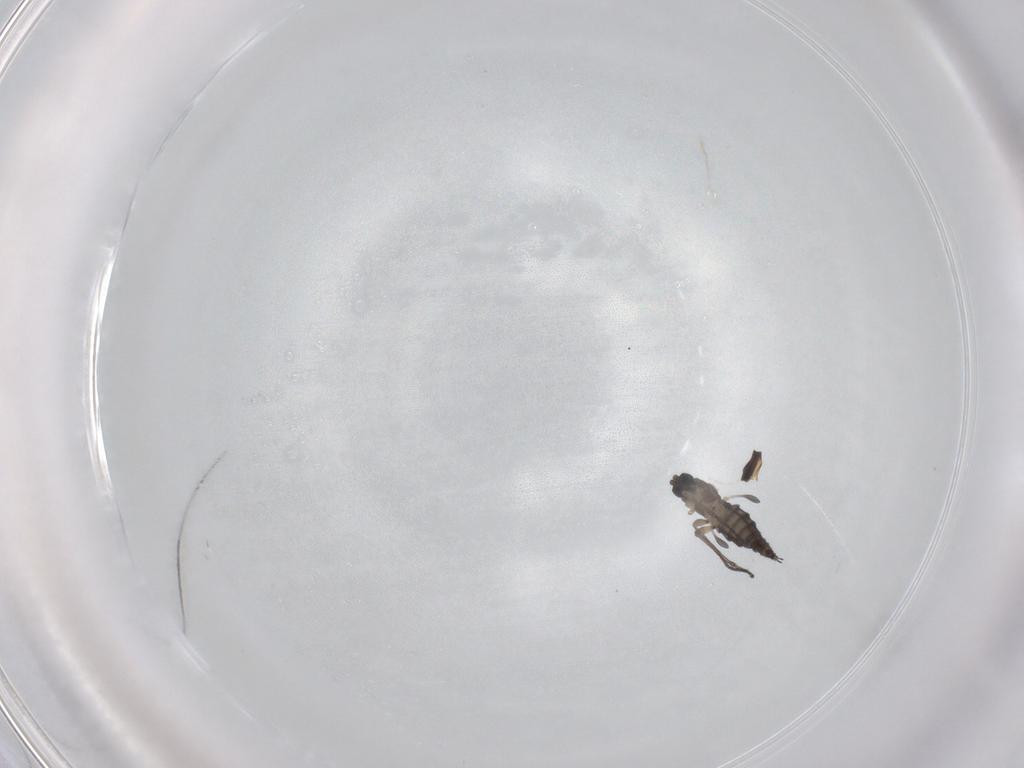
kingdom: Animalia
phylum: Arthropoda
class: Insecta
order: Diptera
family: Sciaridae
